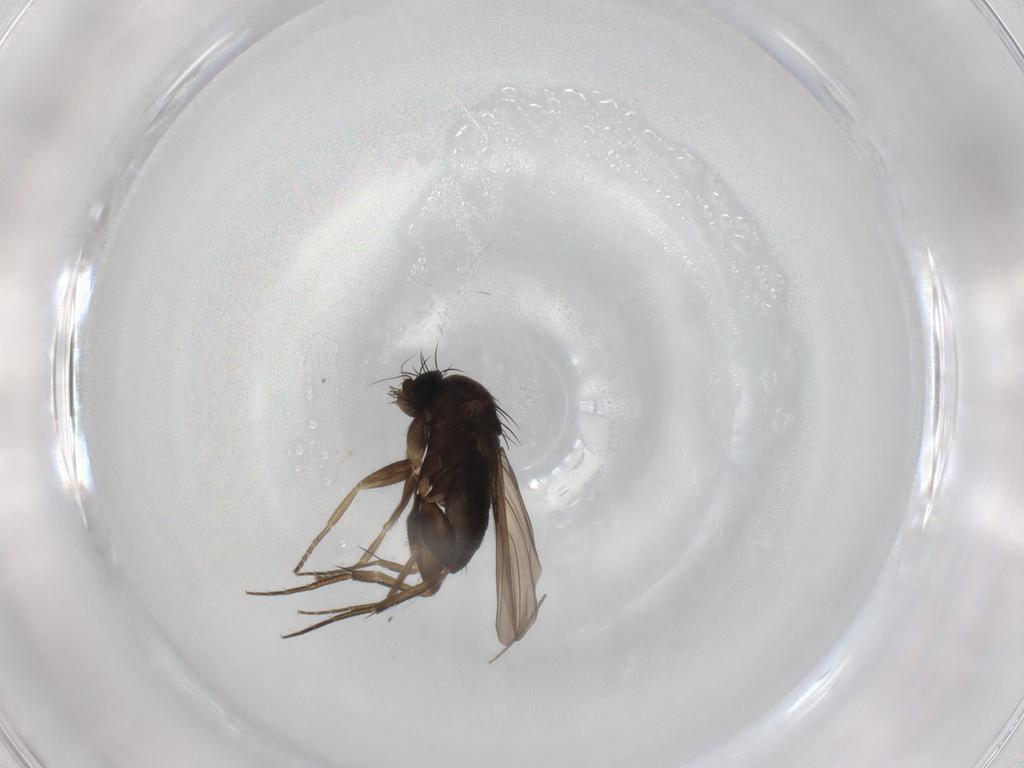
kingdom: Animalia
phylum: Arthropoda
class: Insecta
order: Diptera
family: Phoridae
